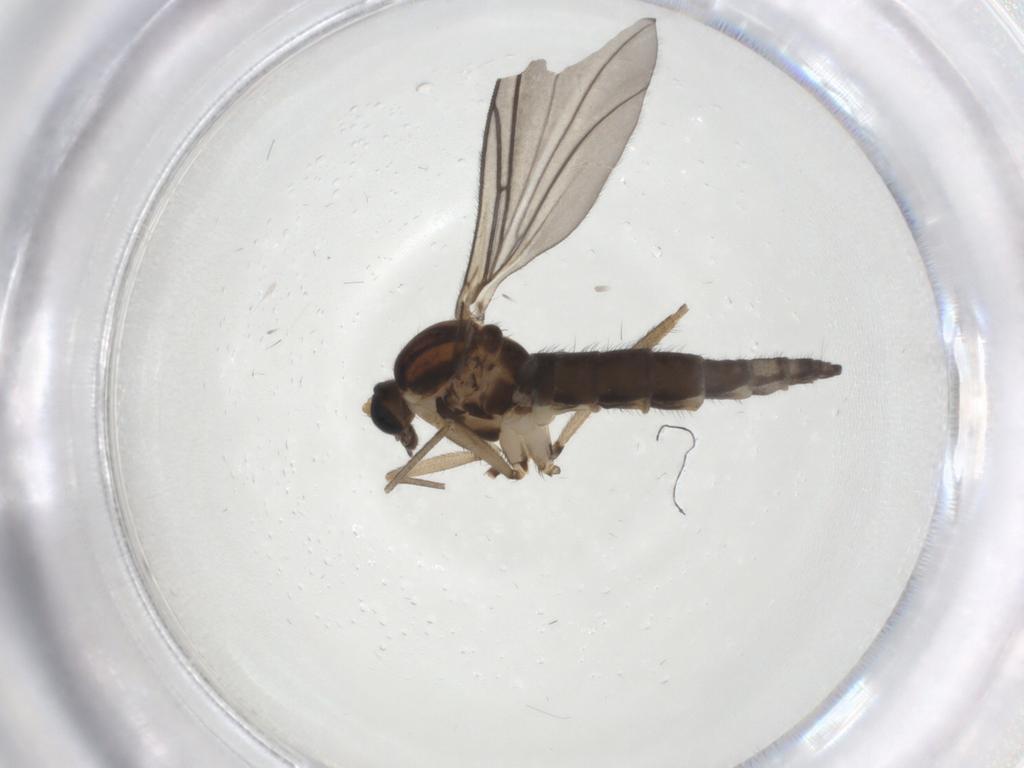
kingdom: Animalia
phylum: Arthropoda
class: Insecta
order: Diptera
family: Sciaridae
